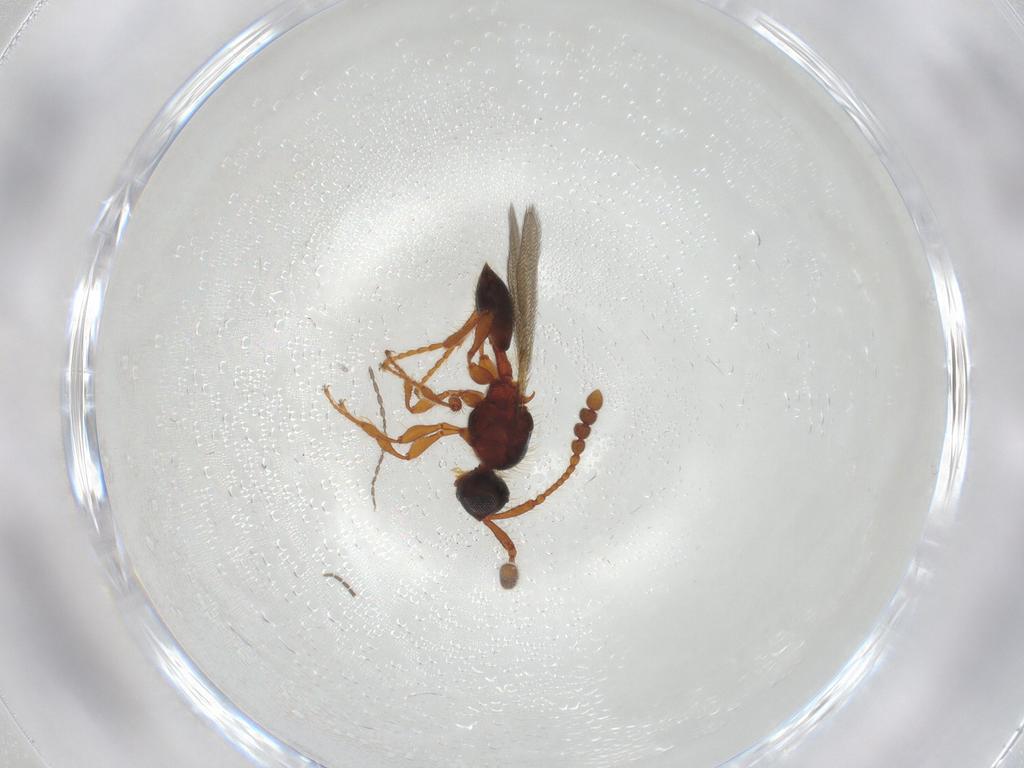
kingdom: Animalia
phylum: Arthropoda
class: Insecta
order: Hymenoptera
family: Diapriidae
